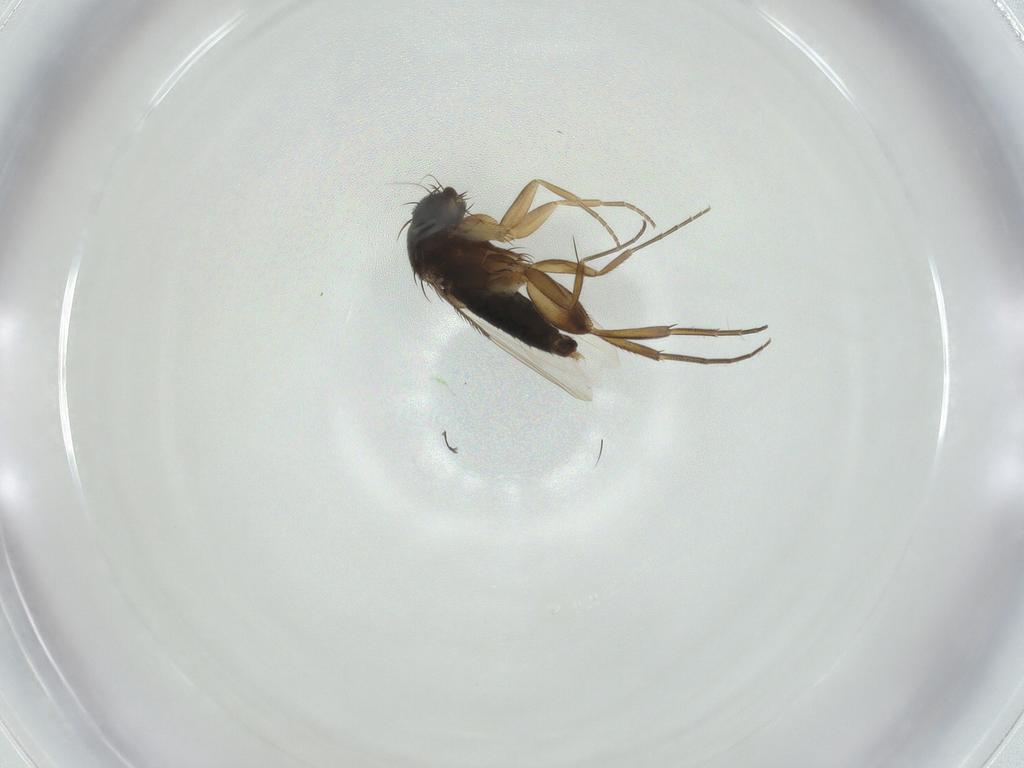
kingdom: Animalia
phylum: Arthropoda
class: Insecta
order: Diptera
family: Phoridae
